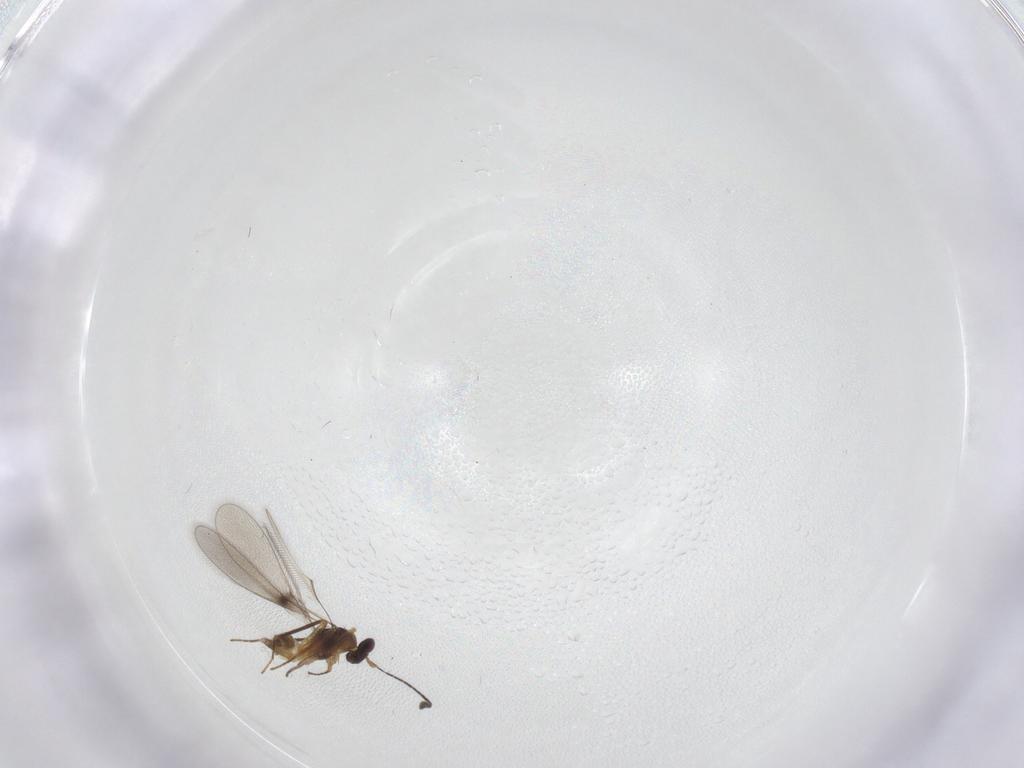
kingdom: Animalia
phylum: Arthropoda
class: Insecta
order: Hymenoptera
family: Mymaridae
